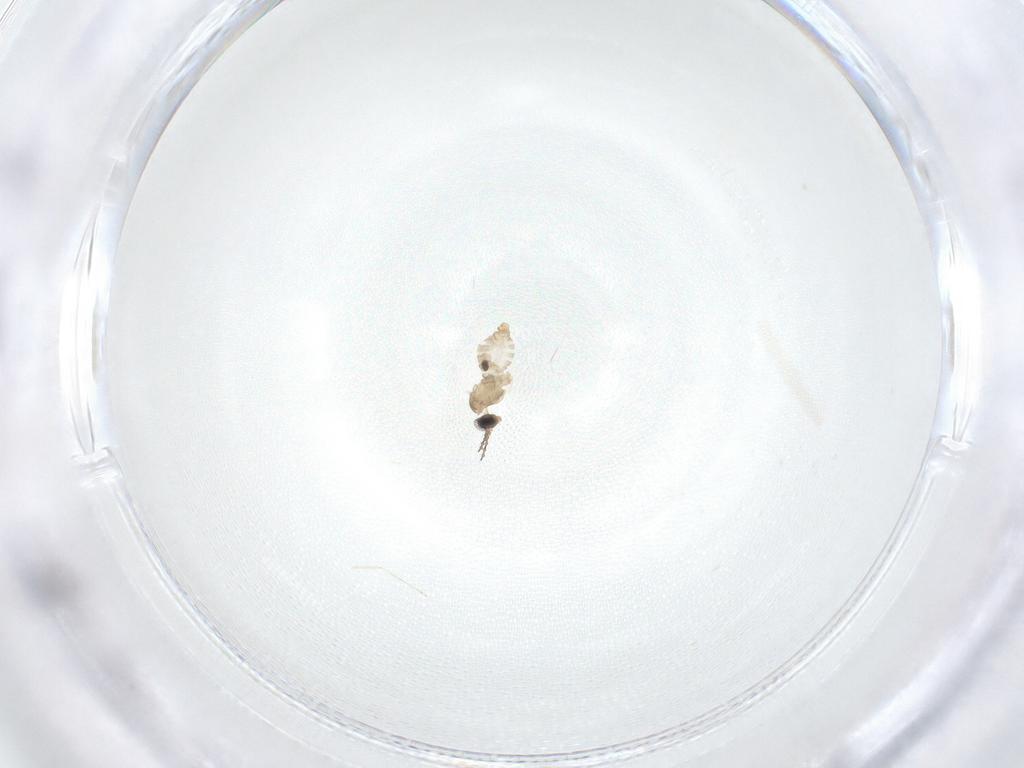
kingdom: Animalia
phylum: Arthropoda
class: Insecta
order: Diptera
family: Cecidomyiidae
